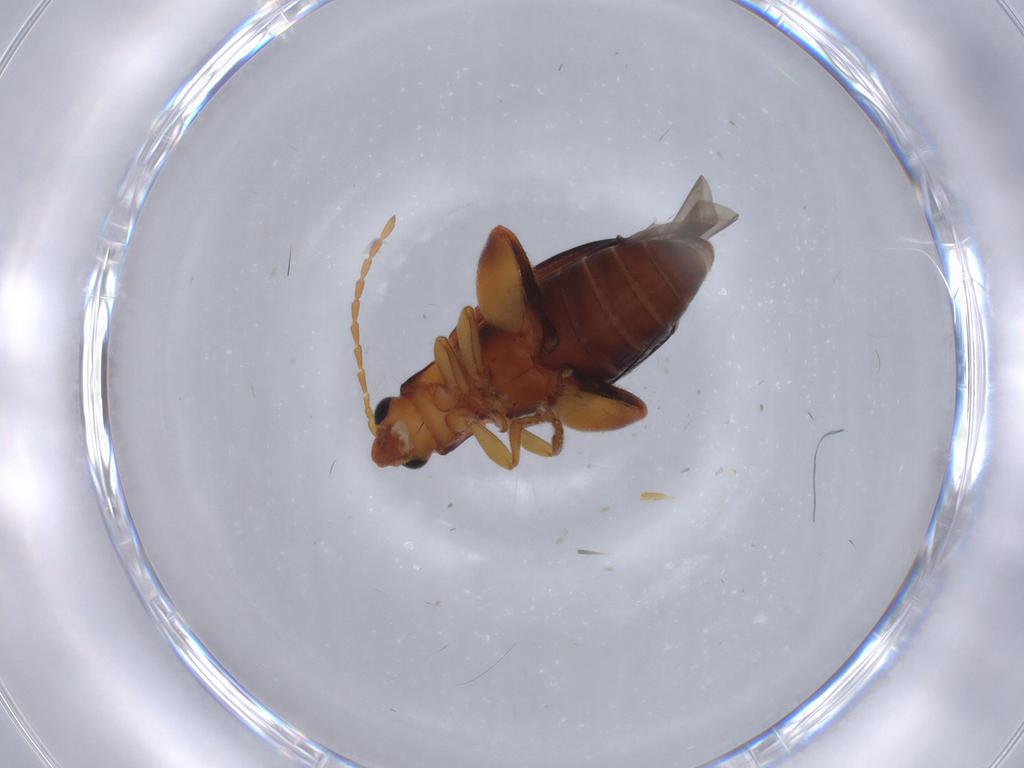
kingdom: Animalia
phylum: Arthropoda
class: Insecta
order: Coleoptera
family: Chrysomelidae
